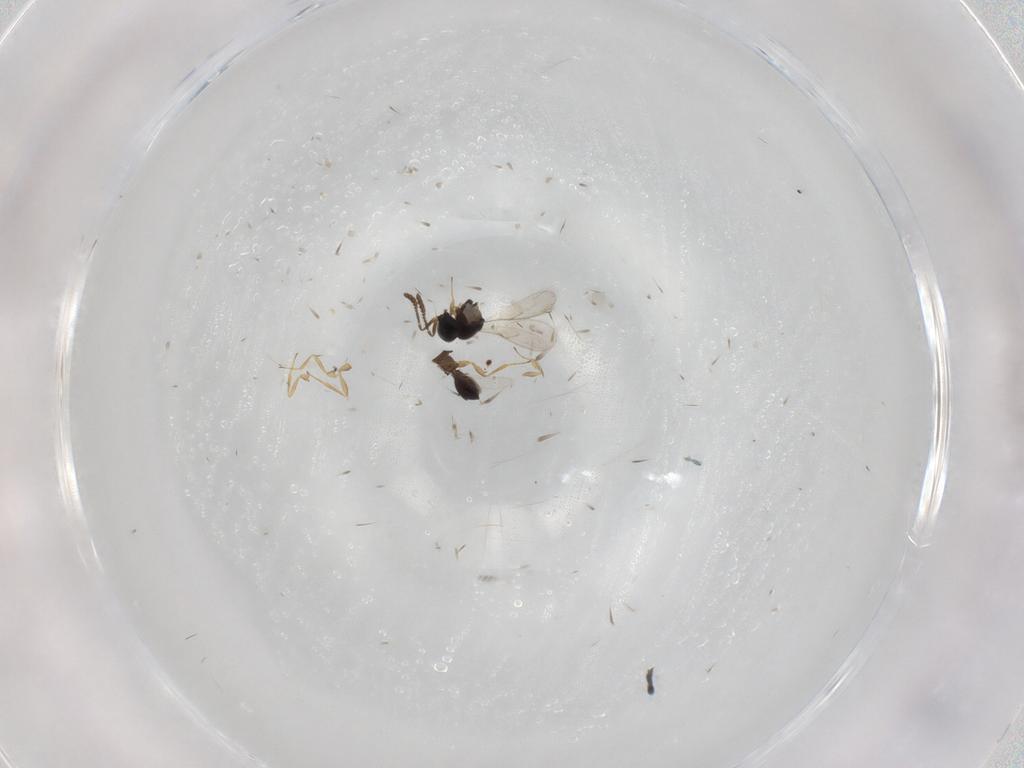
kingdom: Animalia
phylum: Arthropoda
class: Insecta
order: Hymenoptera
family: Scelionidae
